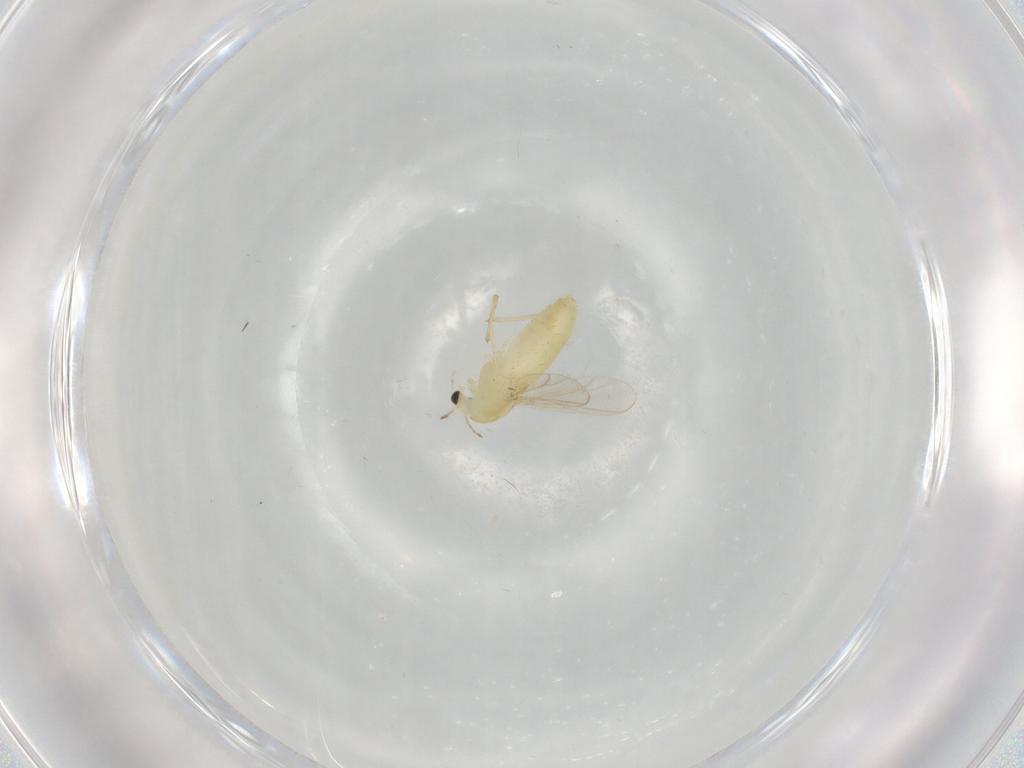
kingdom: Animalia
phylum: Arthropoda
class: Insecta
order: Diptera
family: Chironomidae
